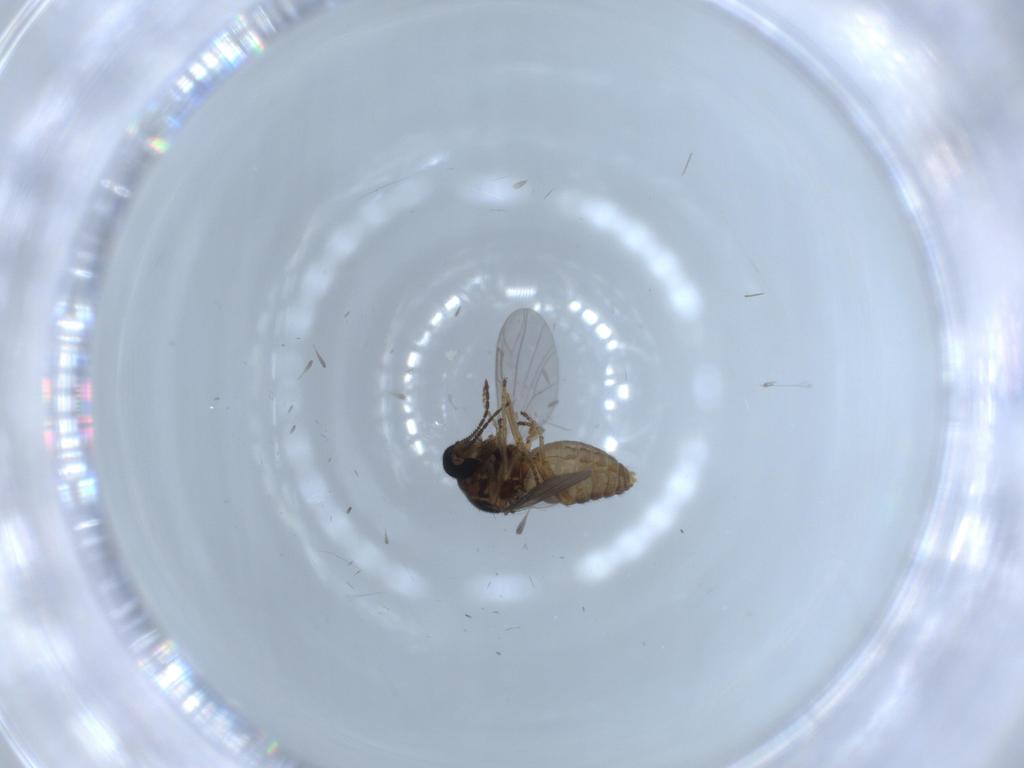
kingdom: Animalia
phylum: Arthropoda
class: Insecta
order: Diptera
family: Ceratopogonidae
